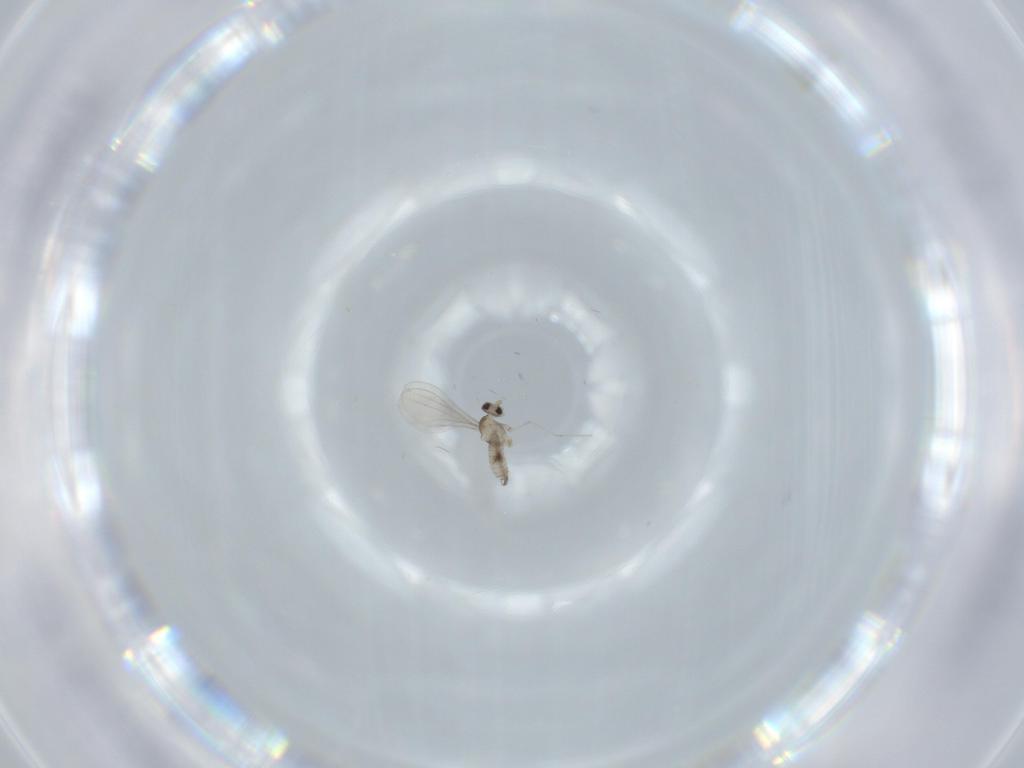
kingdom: Animalia
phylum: Arthropoda
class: Insecta
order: Diptera
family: Cecidomyiidae
